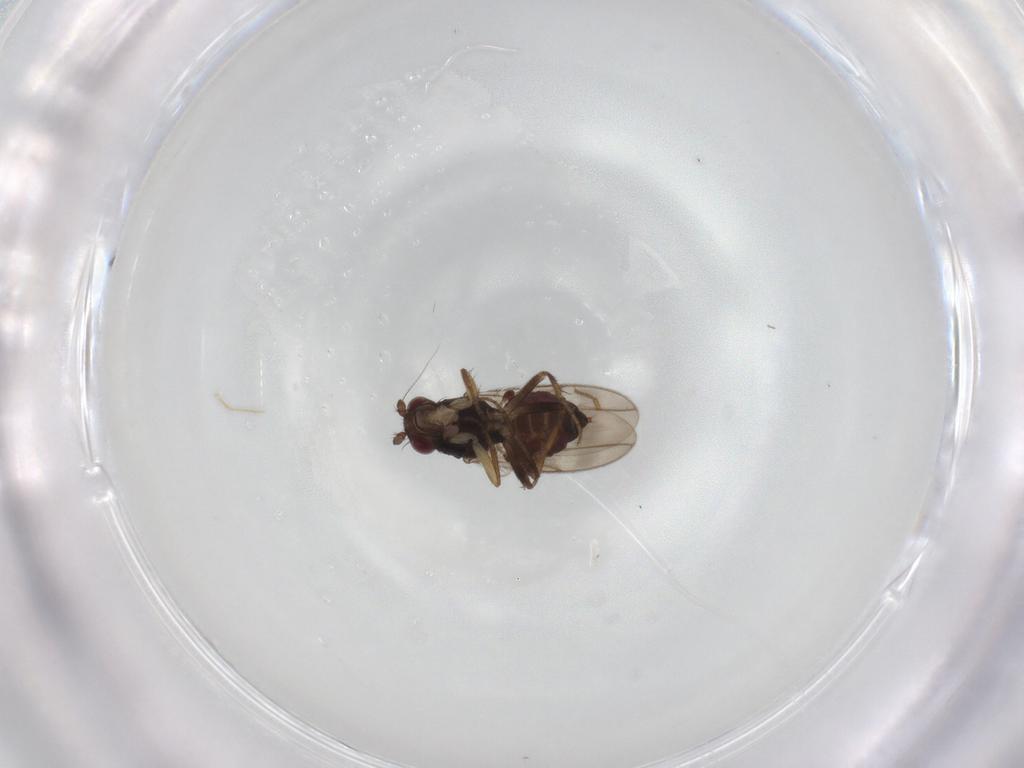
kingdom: Animalia
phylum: Arthropoda
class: Insecta
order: Diptera
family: Sphaeroceridae
